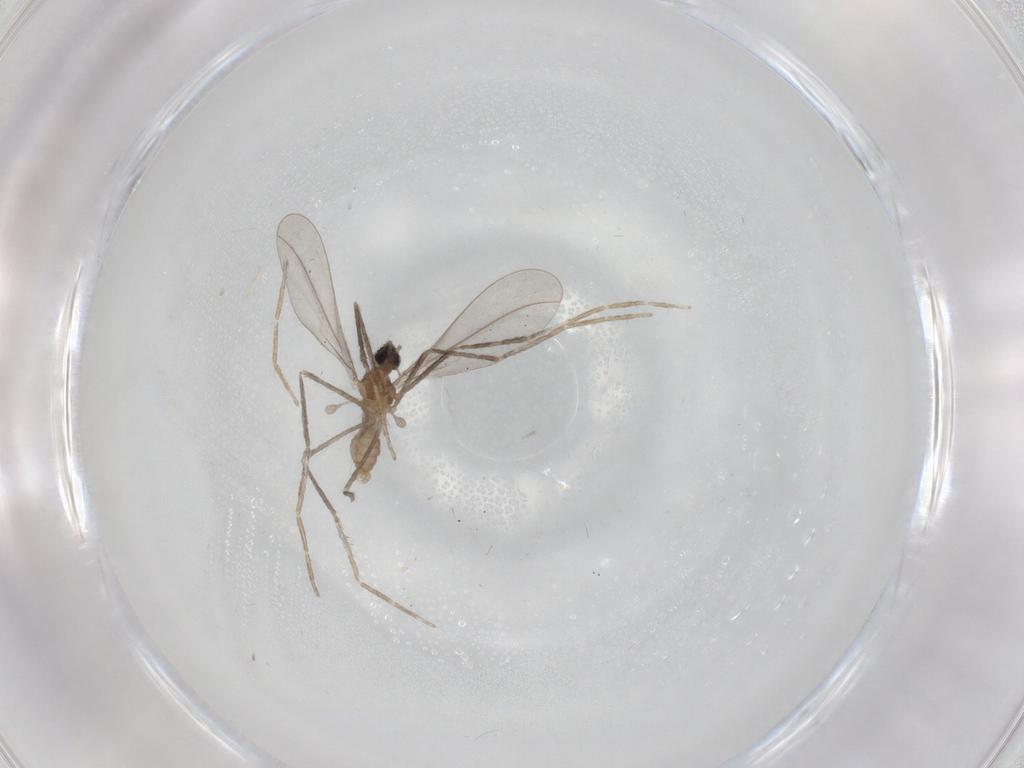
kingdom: Animalia
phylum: Arthropoda
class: Insecta
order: Diptera
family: Cecidomyiidae
